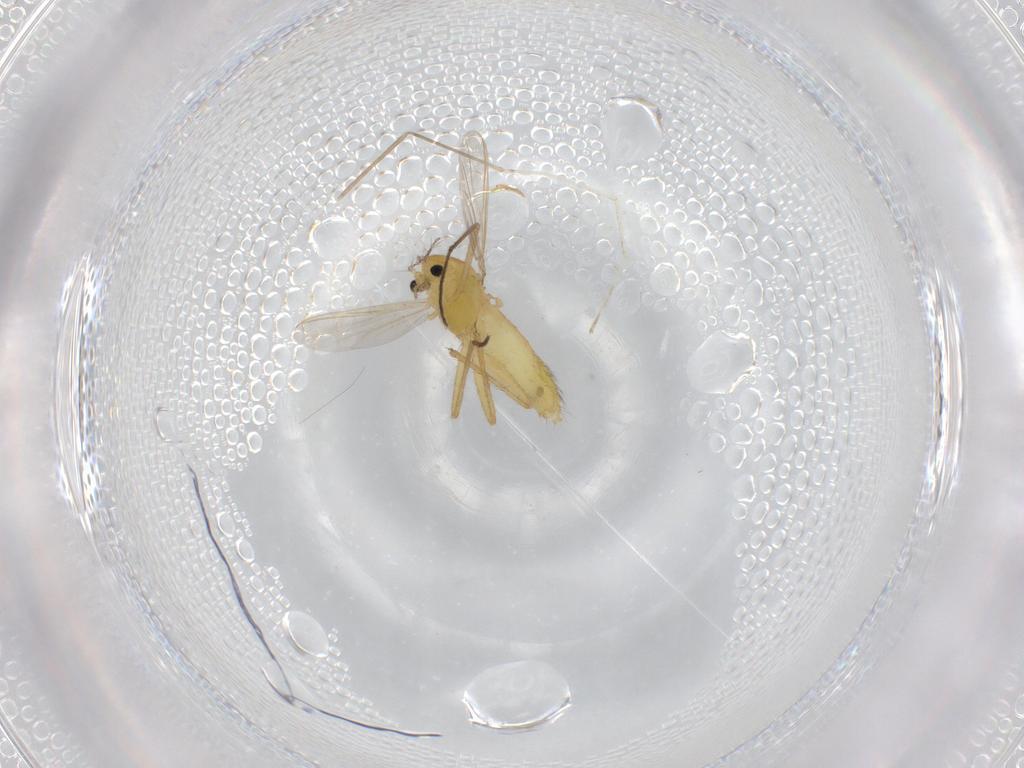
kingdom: Animalia
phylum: Arthropoda
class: Insecta
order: Diptera
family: Chironomidae
